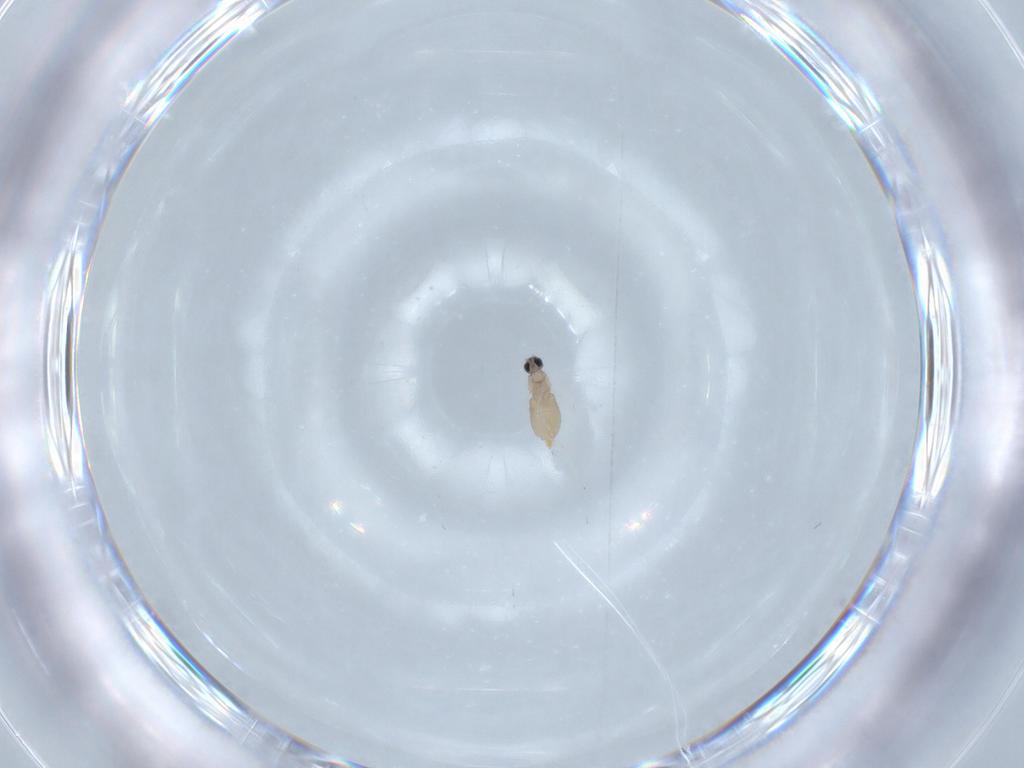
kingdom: Animalia
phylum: Arthropoda
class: Insecta
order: Diptera
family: Cecidomyiidae
